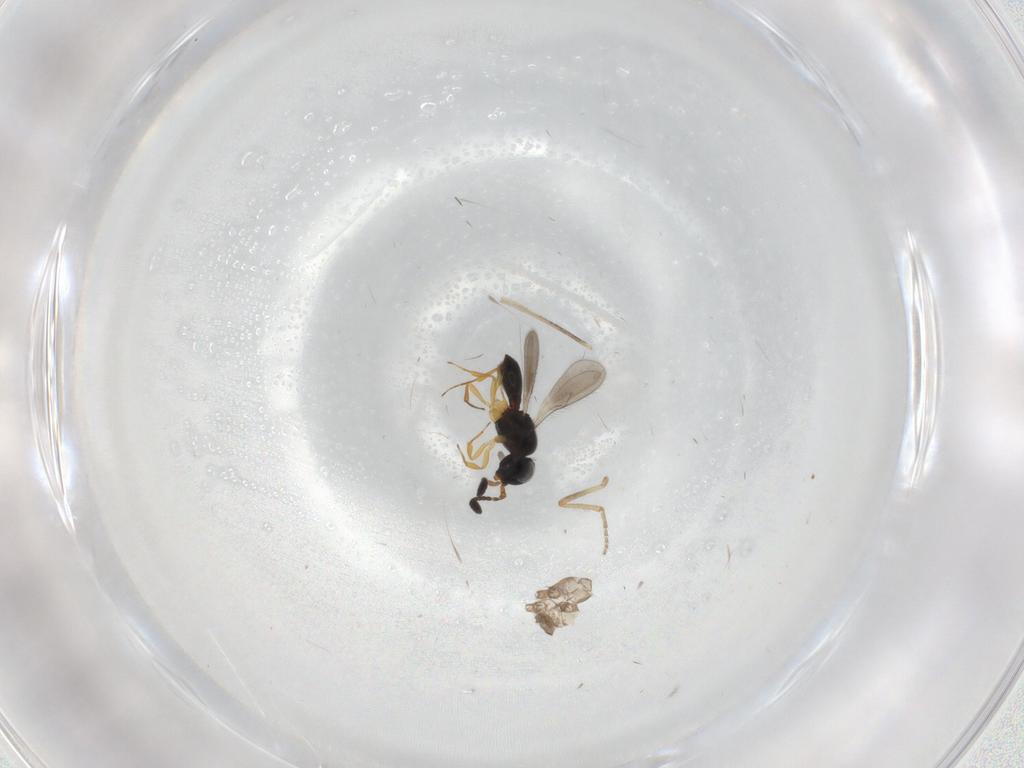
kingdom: Animalia
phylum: Arthropoda
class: Insecta
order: Hymenoptera
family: Scelionidae
